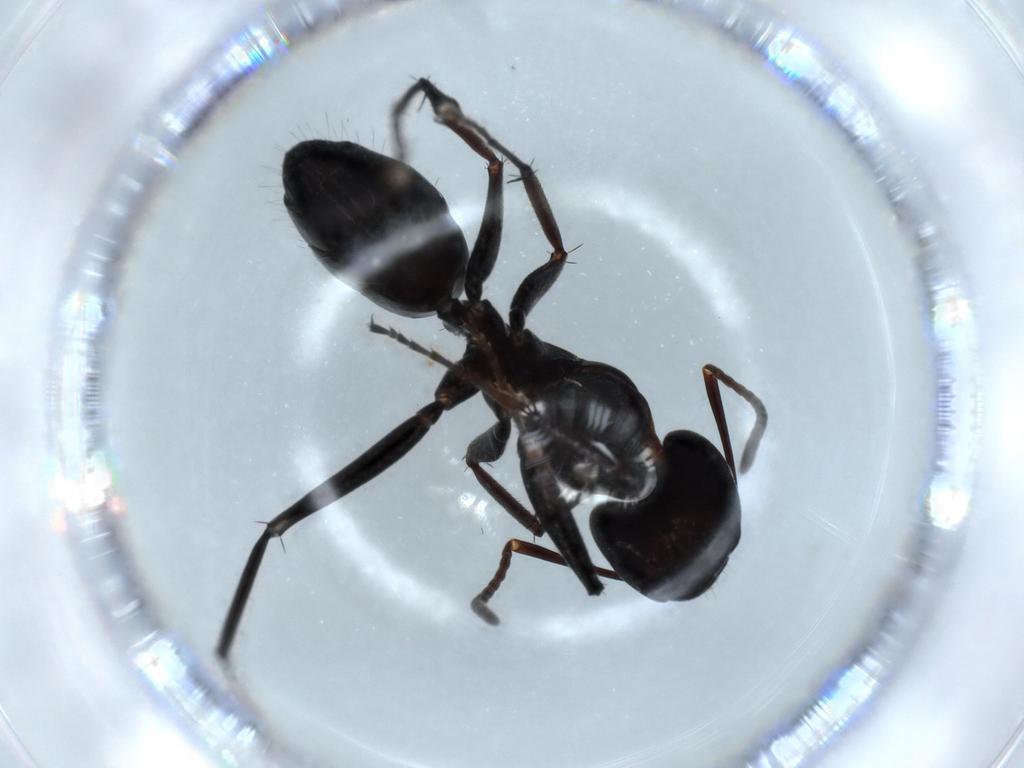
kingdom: Animalia
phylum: Arthropoda
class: Insecta
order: Hymenoptera
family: Formicidae
